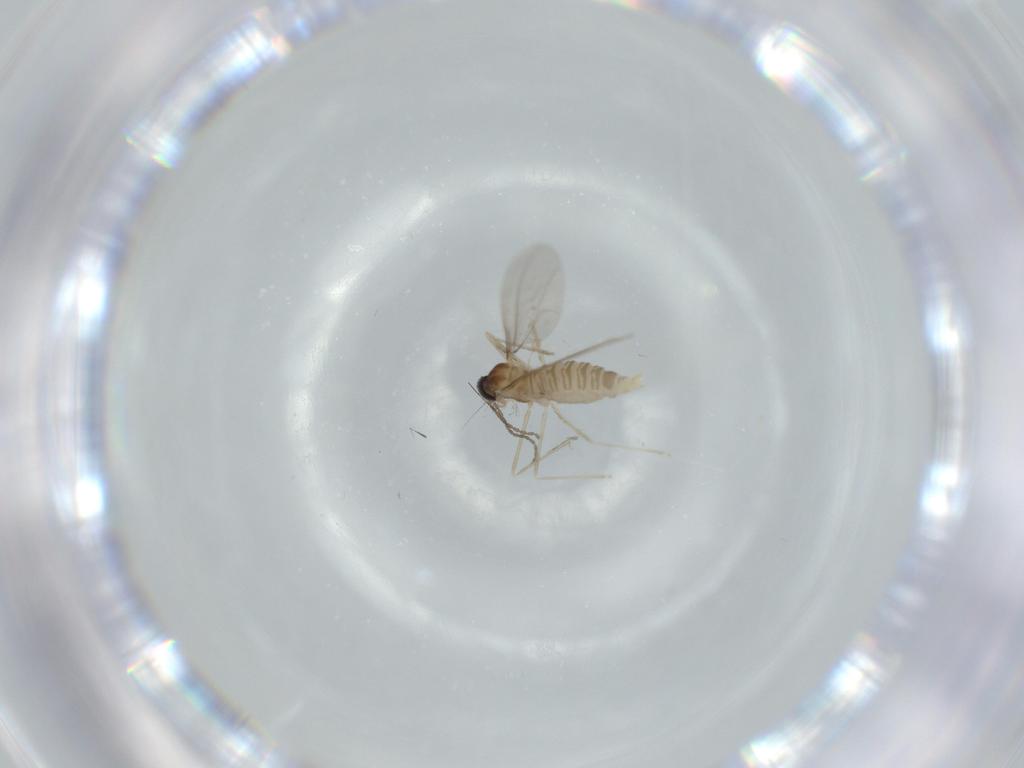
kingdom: Animalia
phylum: Arthropoda
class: Insecta
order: Diptera
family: Cecidomyiidae
